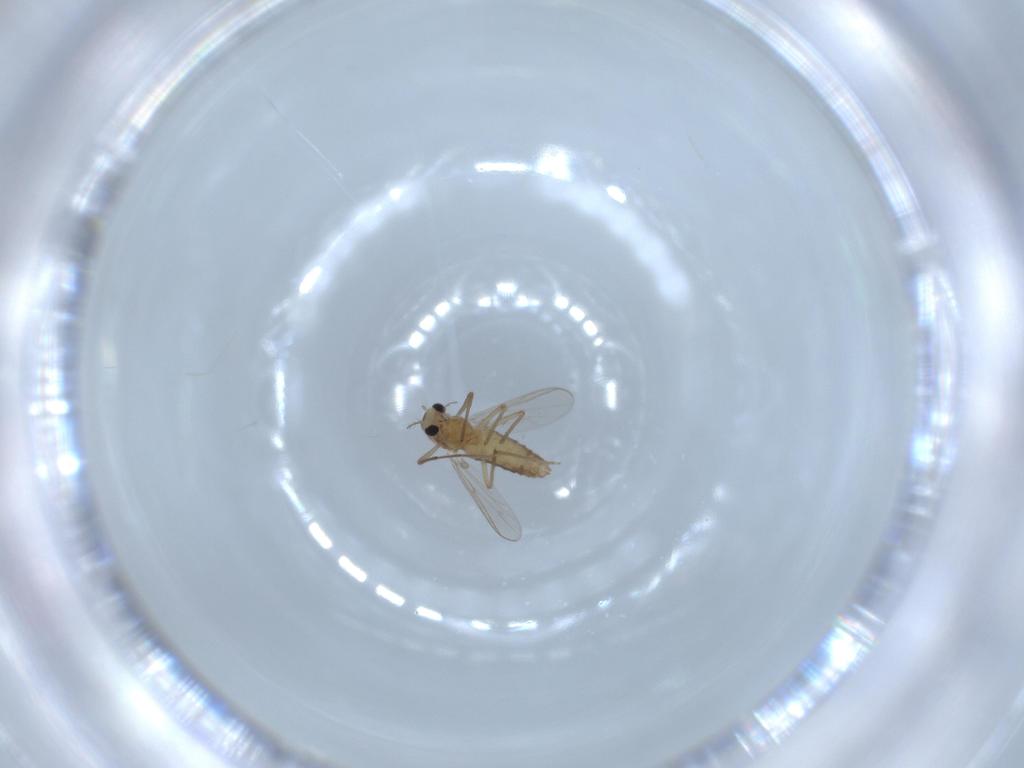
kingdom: Animalia
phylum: Arthropoda
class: Insecta
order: Diptera
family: Chironomidae
